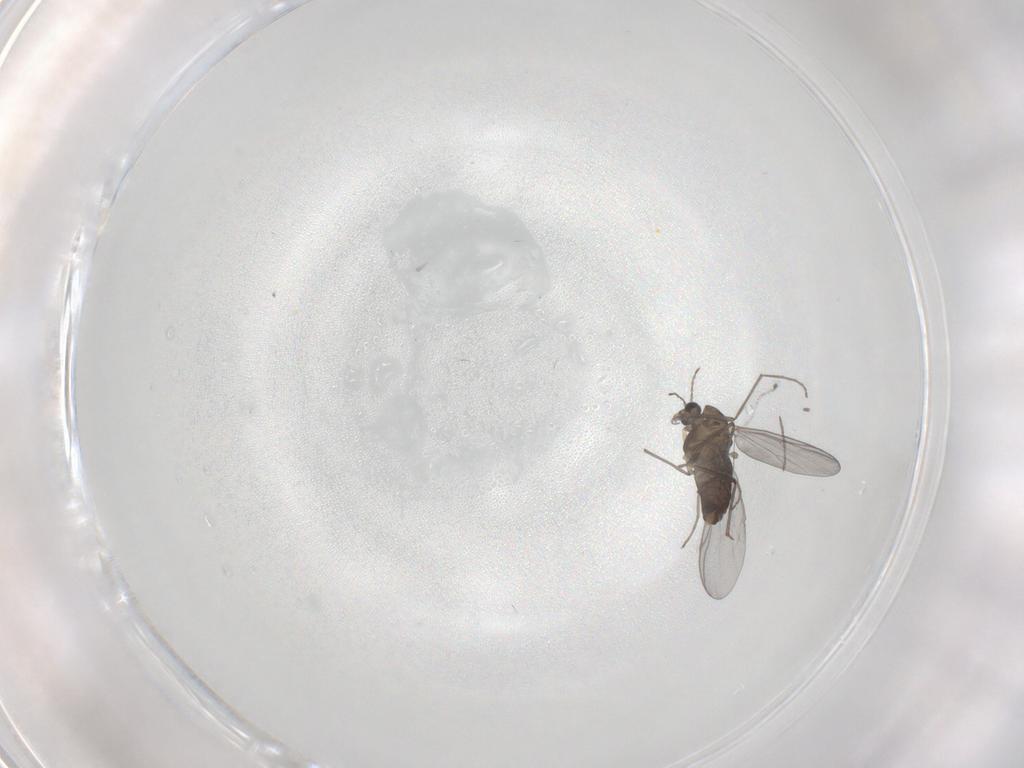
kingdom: Animalia
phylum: Arthropoda
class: Insecta
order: Diptera
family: Chironomidae
